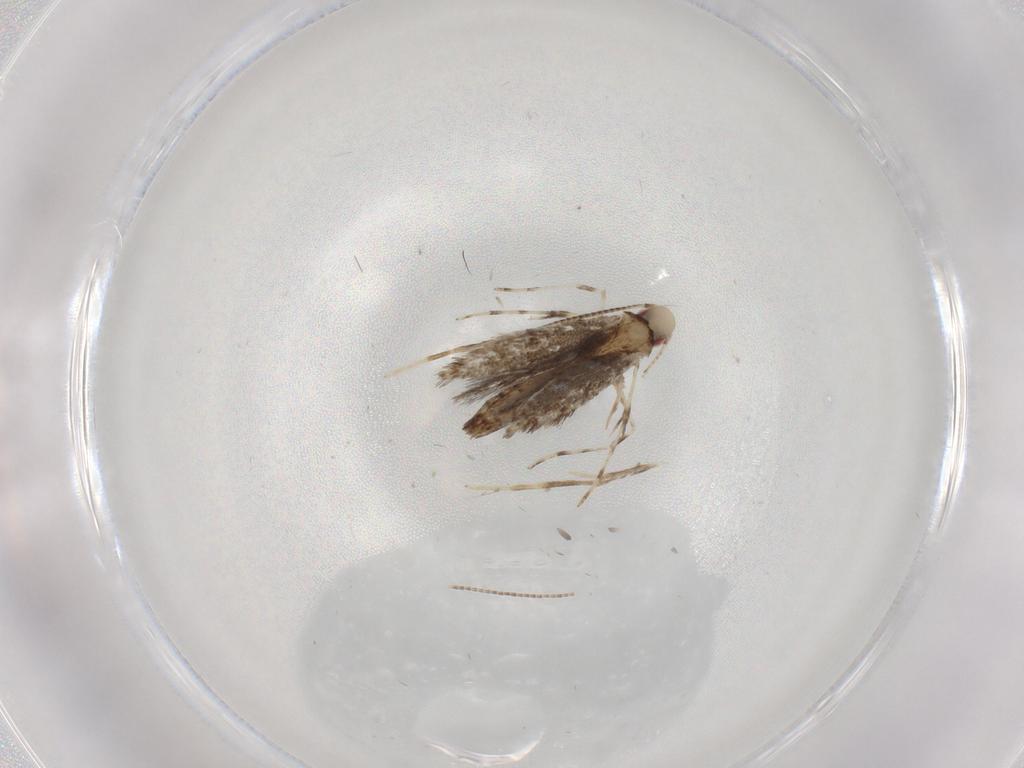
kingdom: Animalia
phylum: Arthropoda
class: Insecta
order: Lepidoptera
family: Gracillariidae
